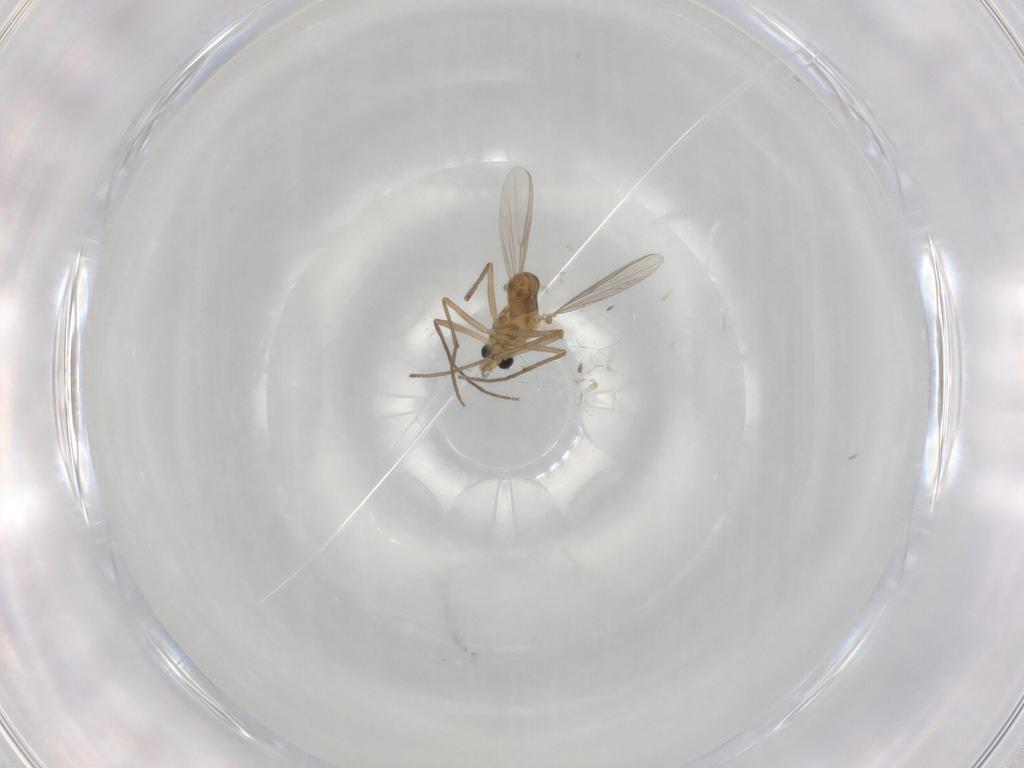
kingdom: Animalia
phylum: Arthropoda
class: Insecta
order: Diptera
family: Chironomidae
